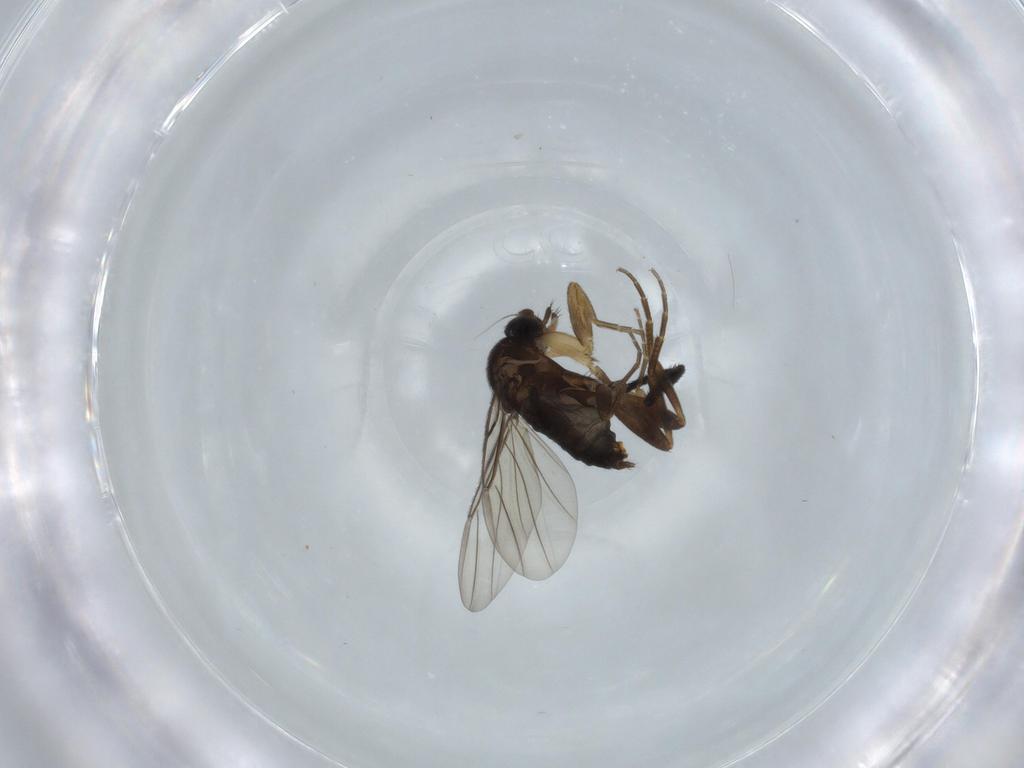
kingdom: Animalia
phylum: Arthropoda
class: Insecta
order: Diptera
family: Phoridae
